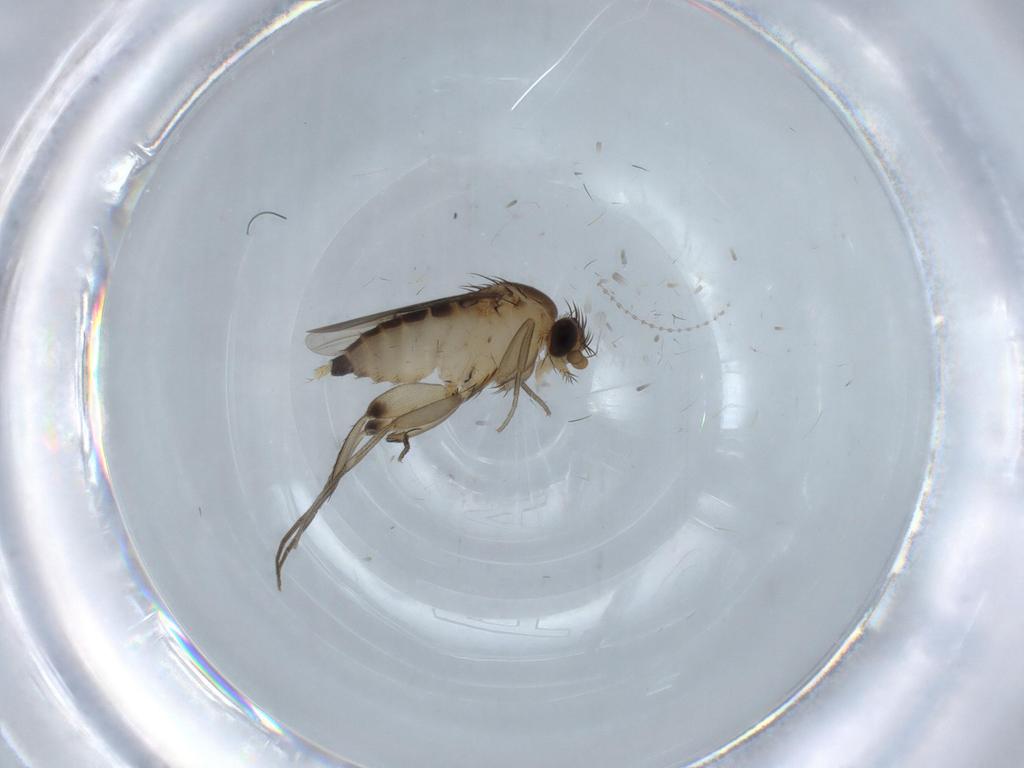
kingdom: Animalia
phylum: Arthropoda
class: Insecta
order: Diptera
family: Phoridae
